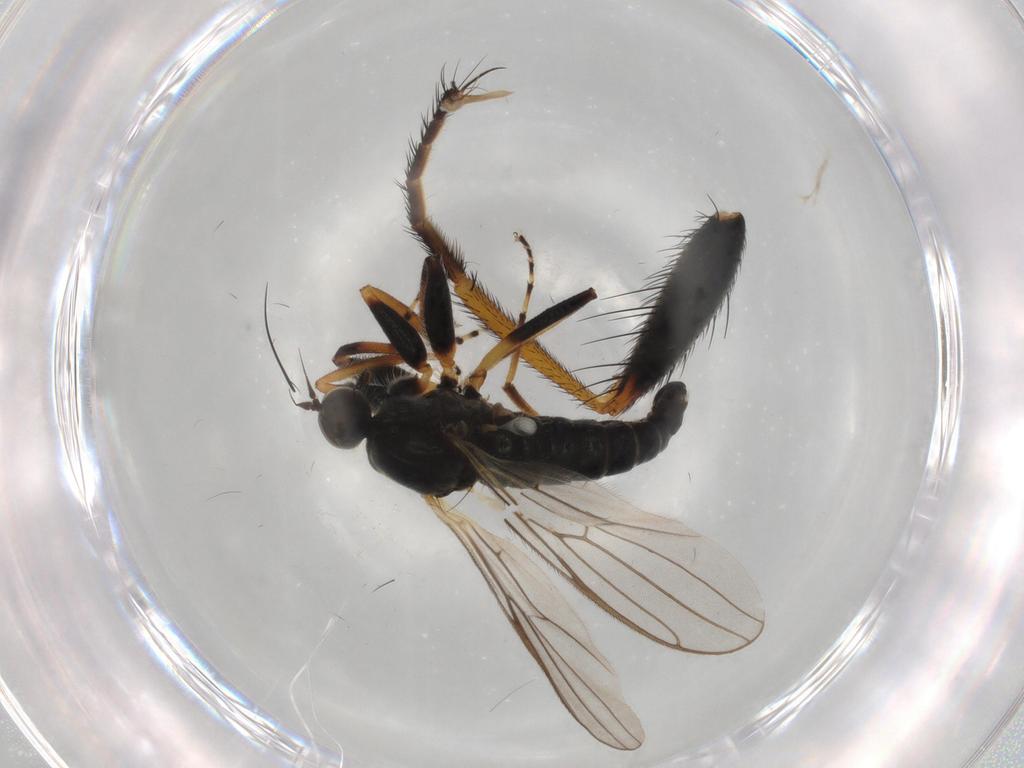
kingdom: Animalia
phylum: Arthropoda
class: Insecta
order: Diptera
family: Hybotidae
